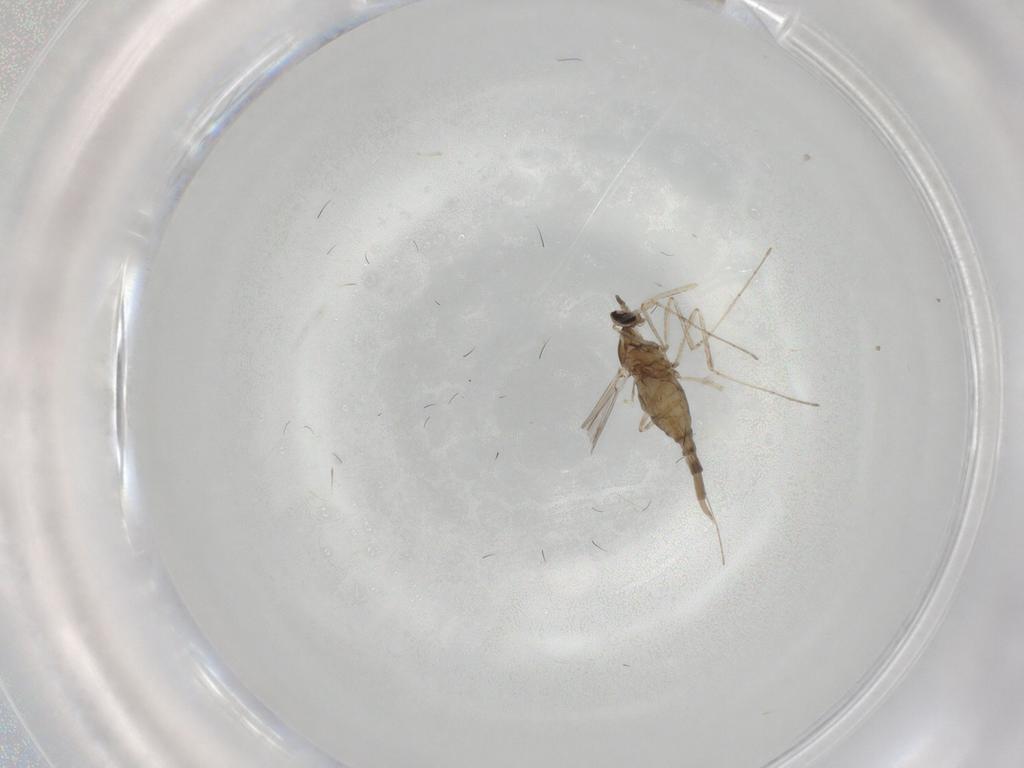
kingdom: Animalia
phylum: Arthropoda
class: Insecta
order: Diptera
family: Cecidomyiidae
